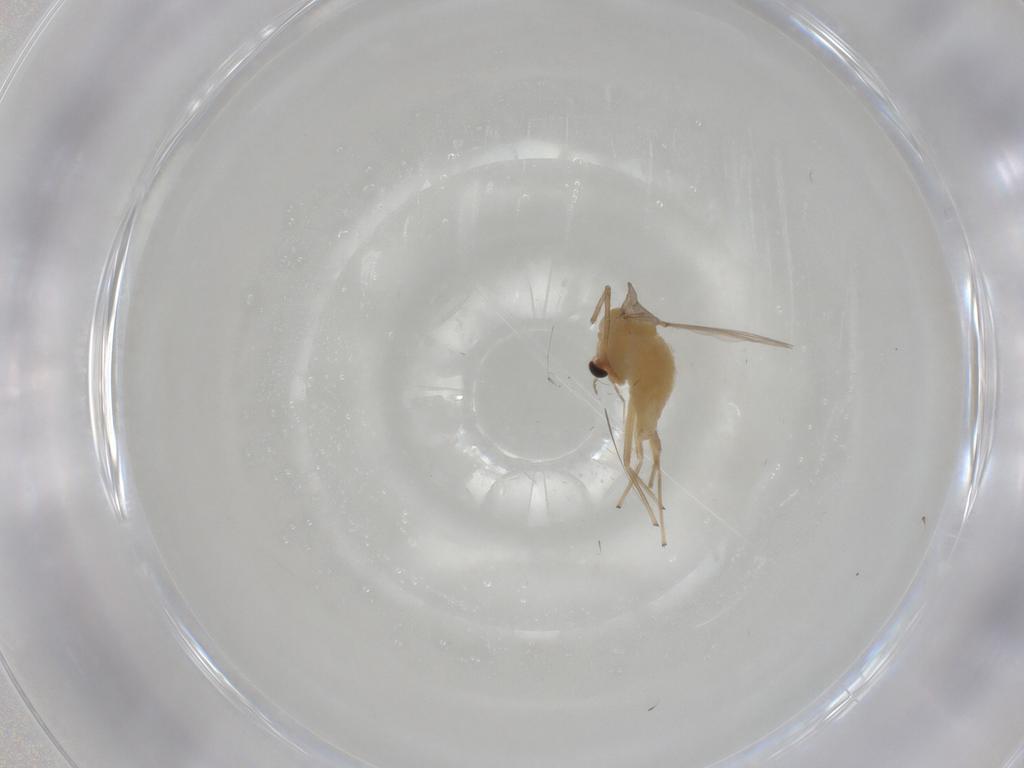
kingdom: Animalia
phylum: Arthropoda
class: Insecta
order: Diptera
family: Chironomidae
